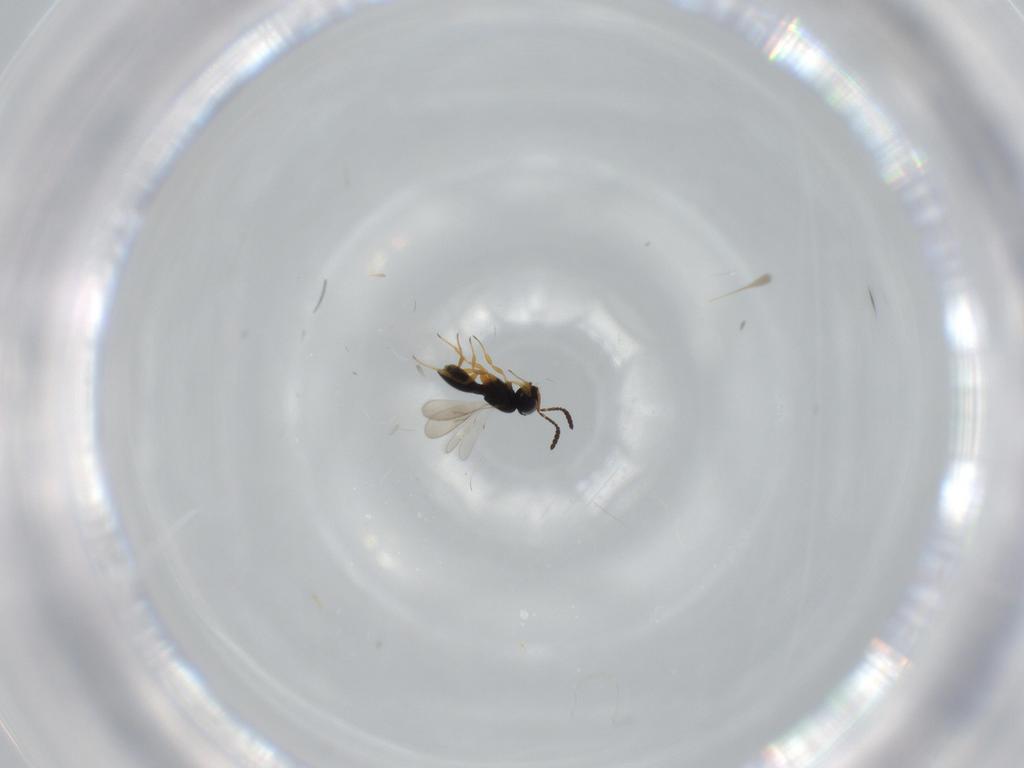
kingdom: Animalia
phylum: Arthropoda
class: Insecta
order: Hymenoptera
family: Scelionidae
